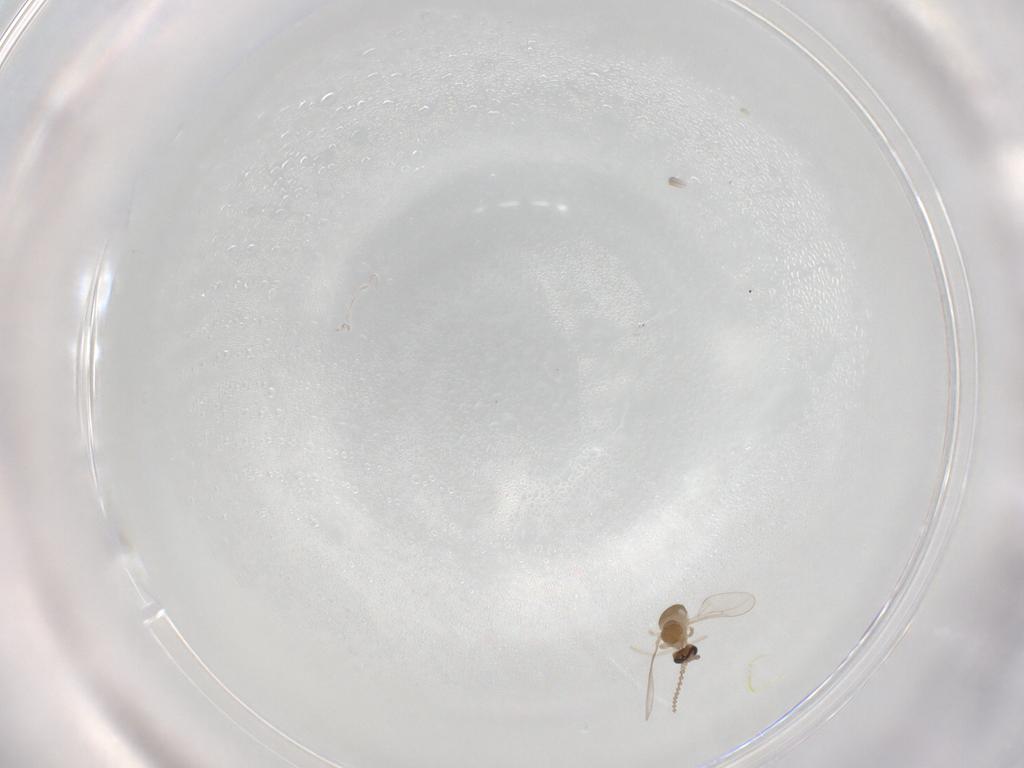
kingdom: Animalia
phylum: Arthropoda
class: Insecta
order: Diptera
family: Cecidomyiidae
